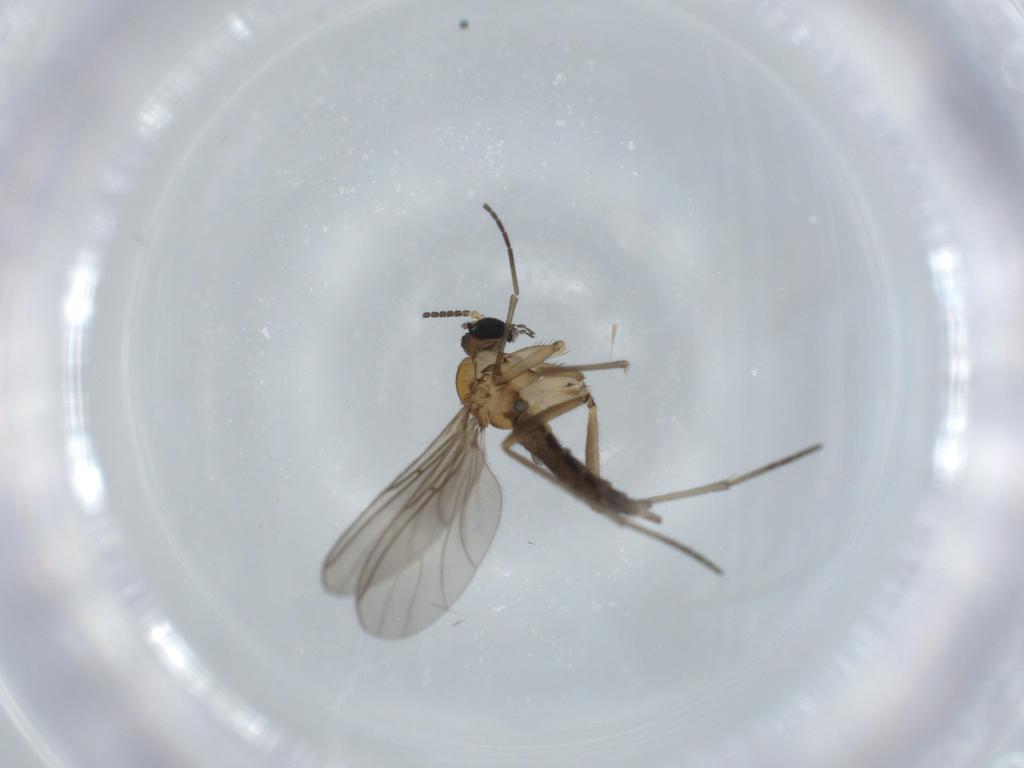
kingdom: Animalia
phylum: Arthropoda
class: Insecta
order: Diptera
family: Sciaridae
